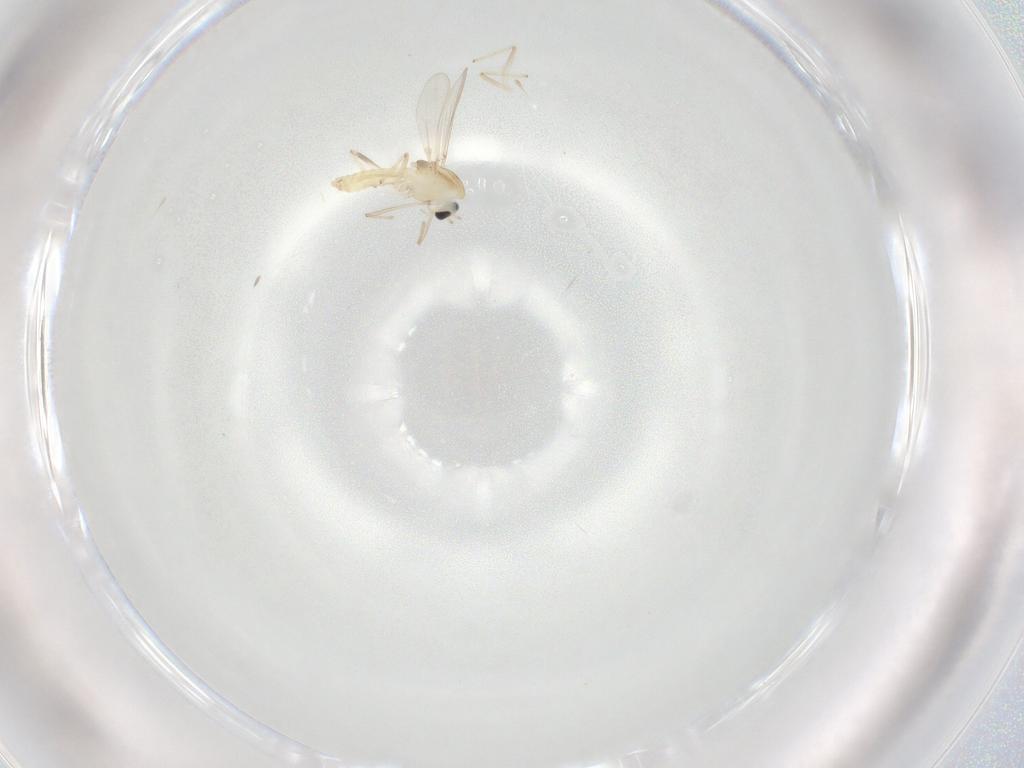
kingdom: Animalia
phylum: Arthropoda
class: Insecta
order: Diptera
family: Chironomidae
